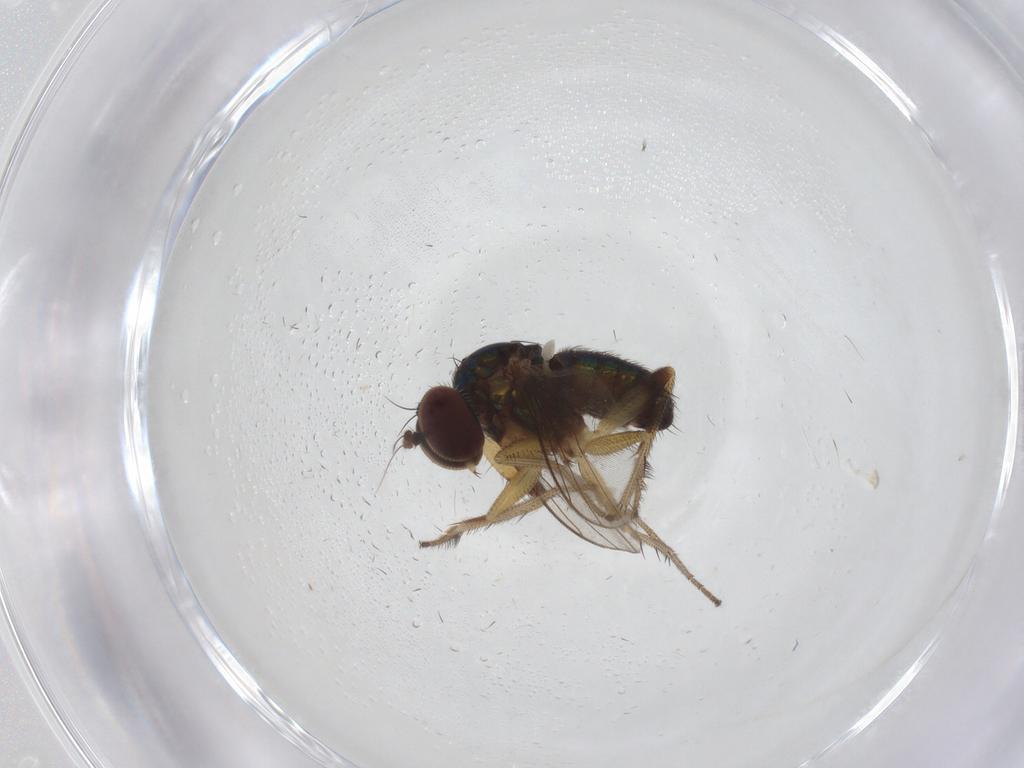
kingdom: Animalia
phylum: Arthropoda
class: Insecta
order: Diptera
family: Dolichopodidae
